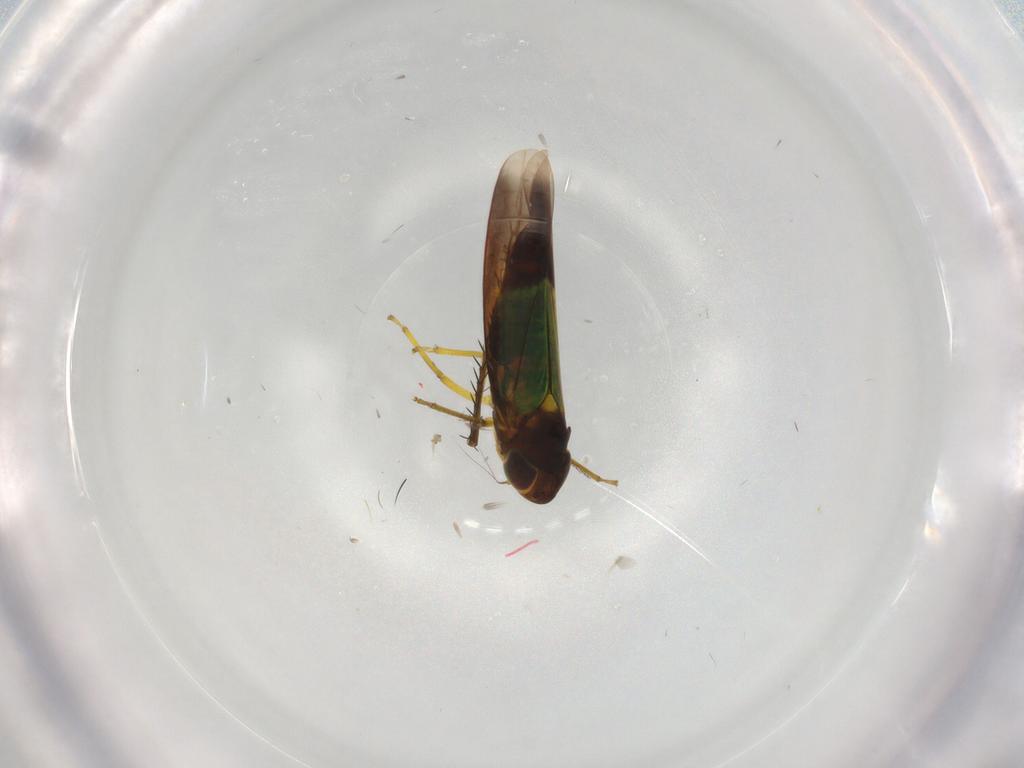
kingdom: Animalia
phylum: Arthropoda
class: Insecta
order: Hemiptera
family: Cicadellidae
